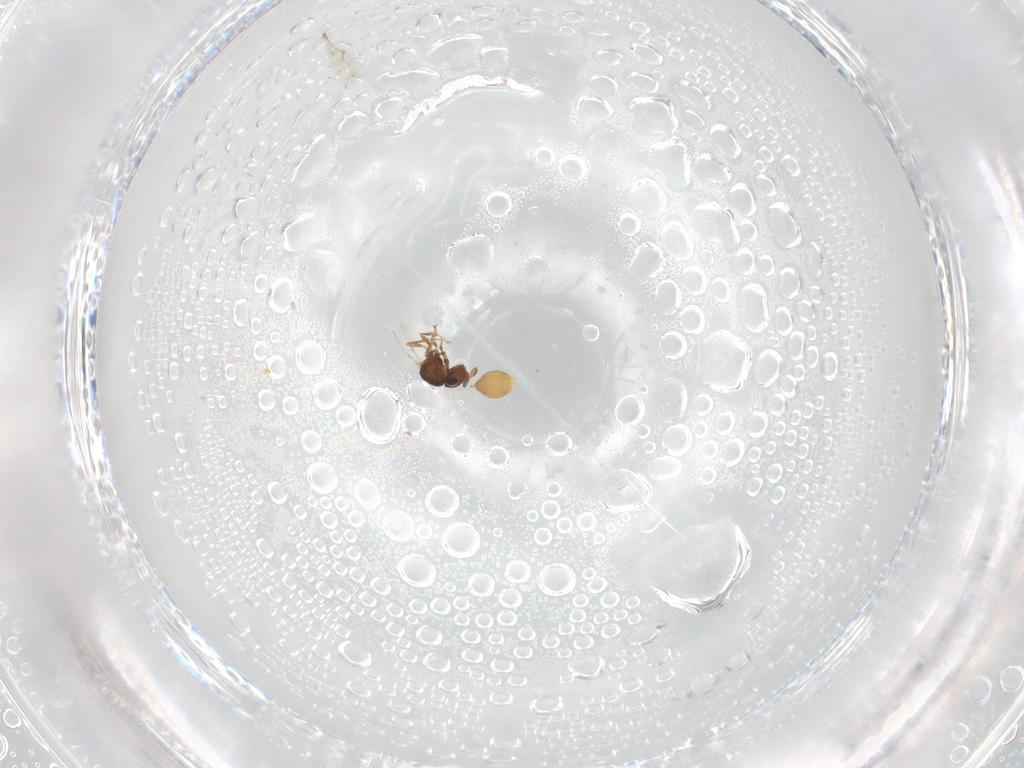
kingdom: Animalia
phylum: Arthropoda
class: Insecta
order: Hymenoptera
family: Scelionidae
